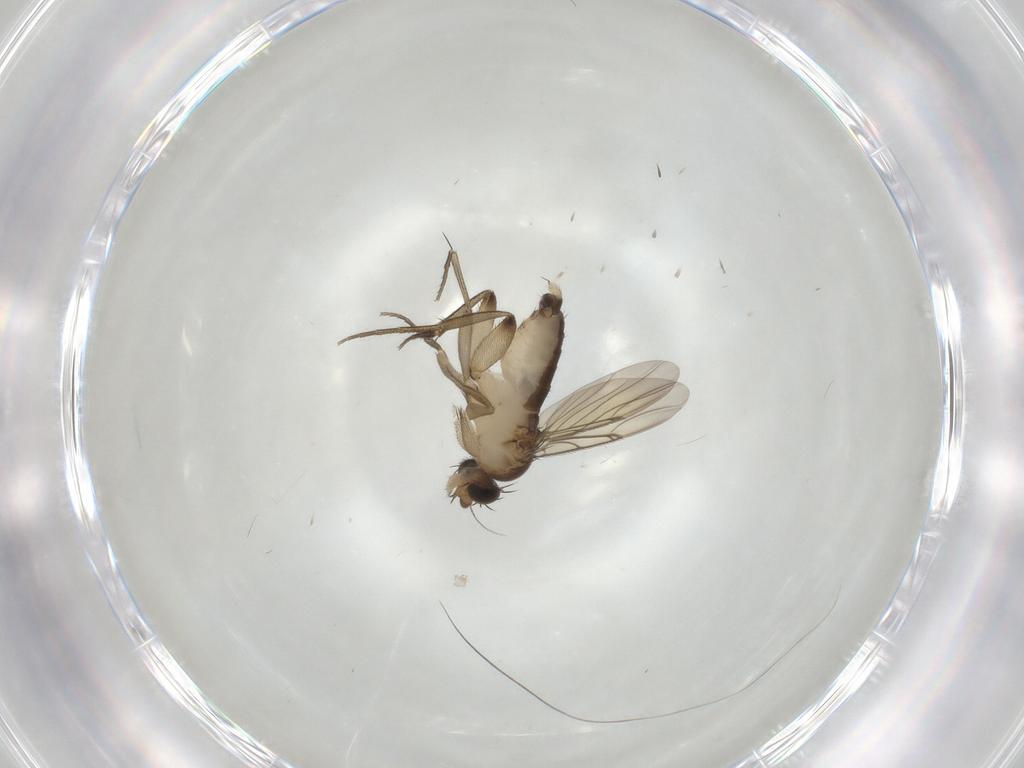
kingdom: Animalia
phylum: Arthropoda
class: Insecta
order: Diptera
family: Phoridae
